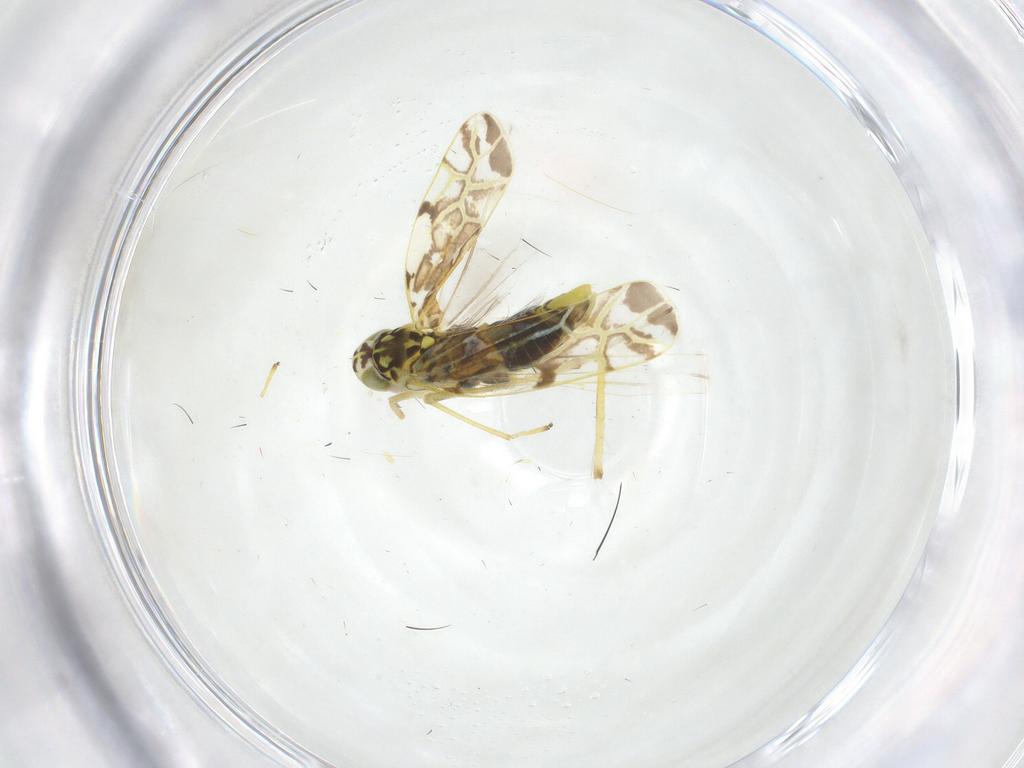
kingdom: Animalia
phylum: Arthropoda
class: Insecta
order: Hemiptera
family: Cicadellidae
